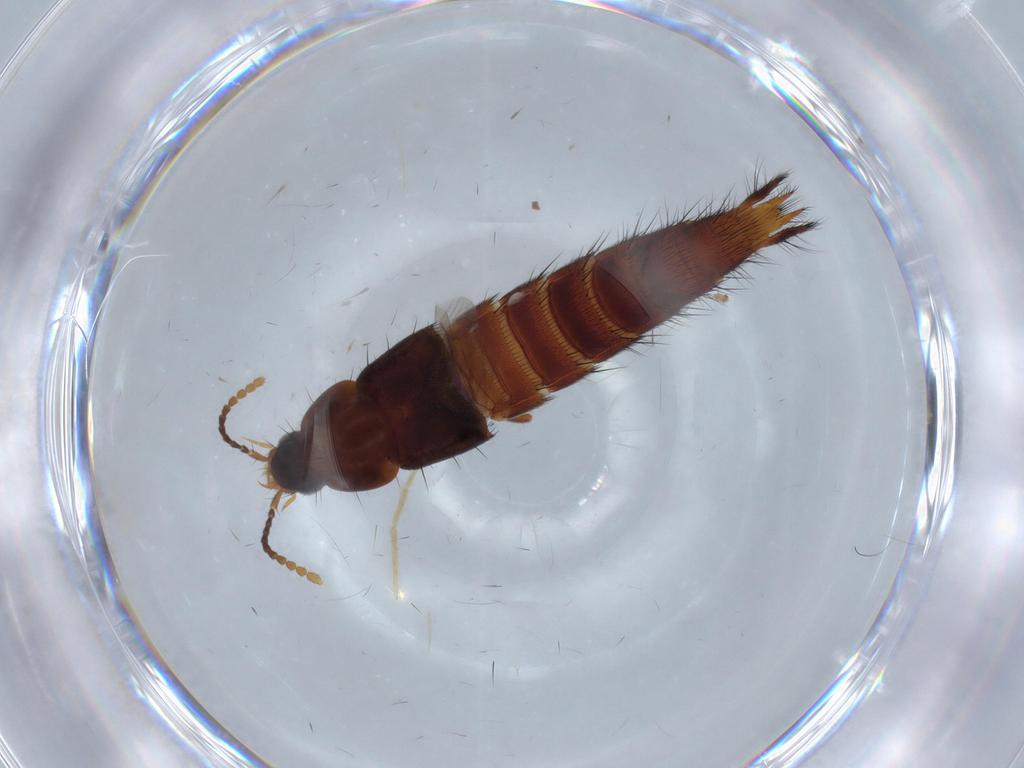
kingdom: Animalia
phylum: Arthropoda
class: Insecta
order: Coleoptera
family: Staphylinidae
